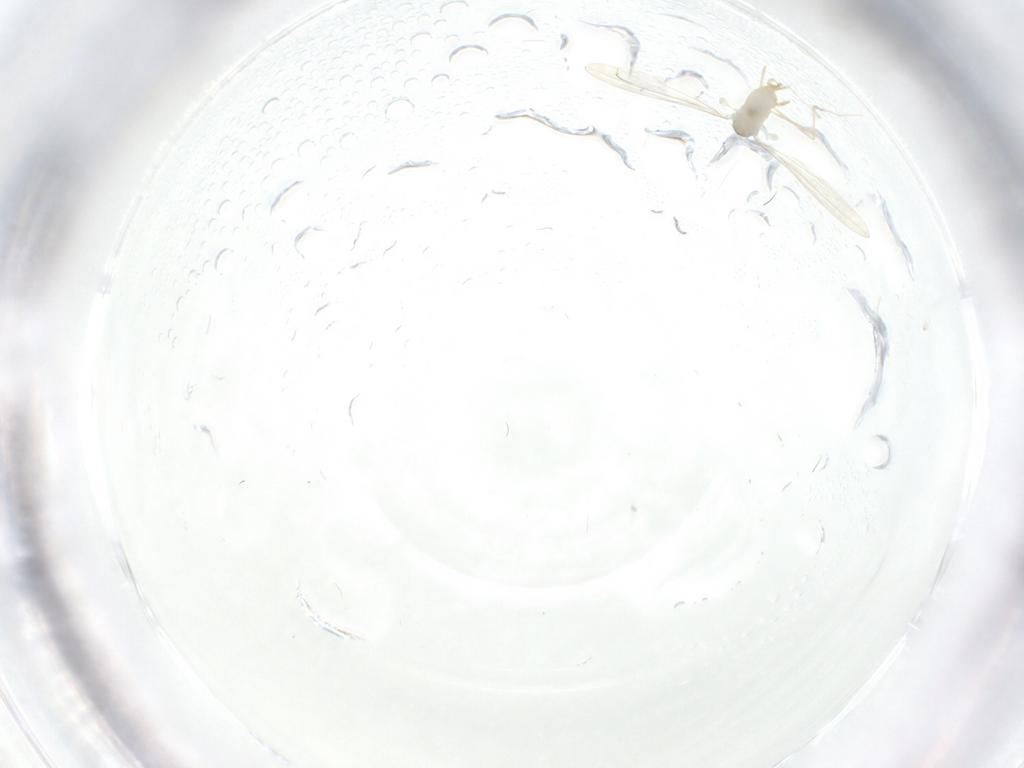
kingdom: Animalia
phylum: Arthropoda
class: Insecta
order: Diptera
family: Cecidomyiidae
